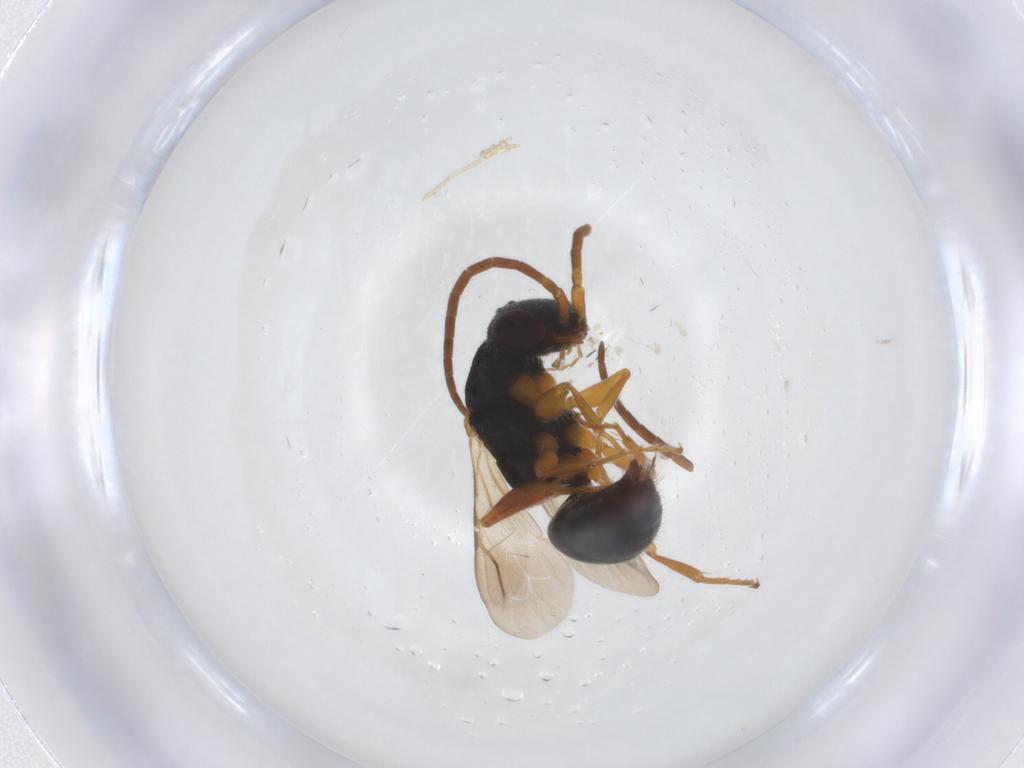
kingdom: Animalia
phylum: Arthropoda
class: Insecta
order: Hymenoptera
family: Bethylidae
